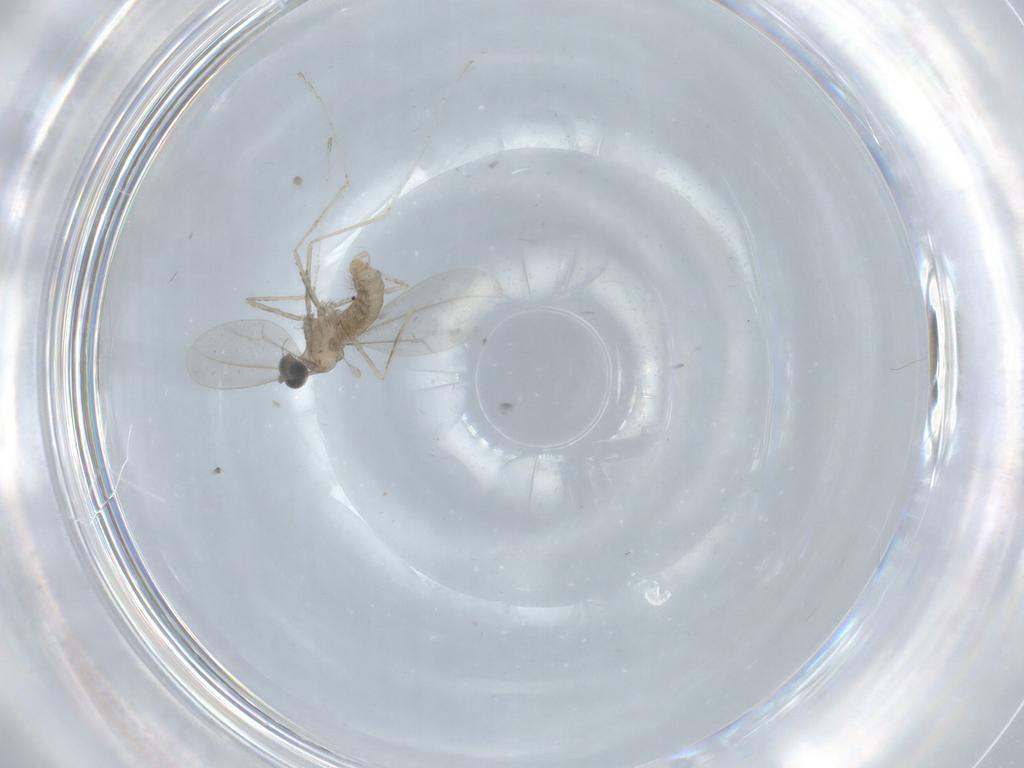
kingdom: Animalia
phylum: Arthropoda
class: Insecta
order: Diptera
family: Cecidomyiidae
